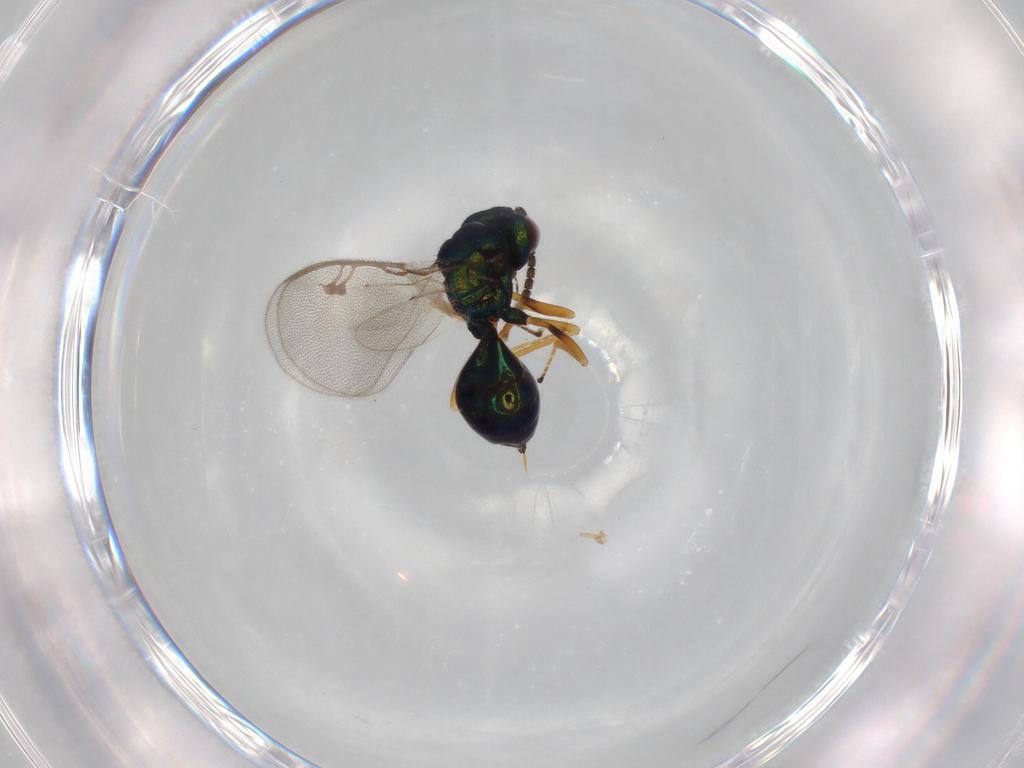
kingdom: Animalia
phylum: Arthropoda
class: Insecta
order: Hymenoptera
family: Pteromalidae
